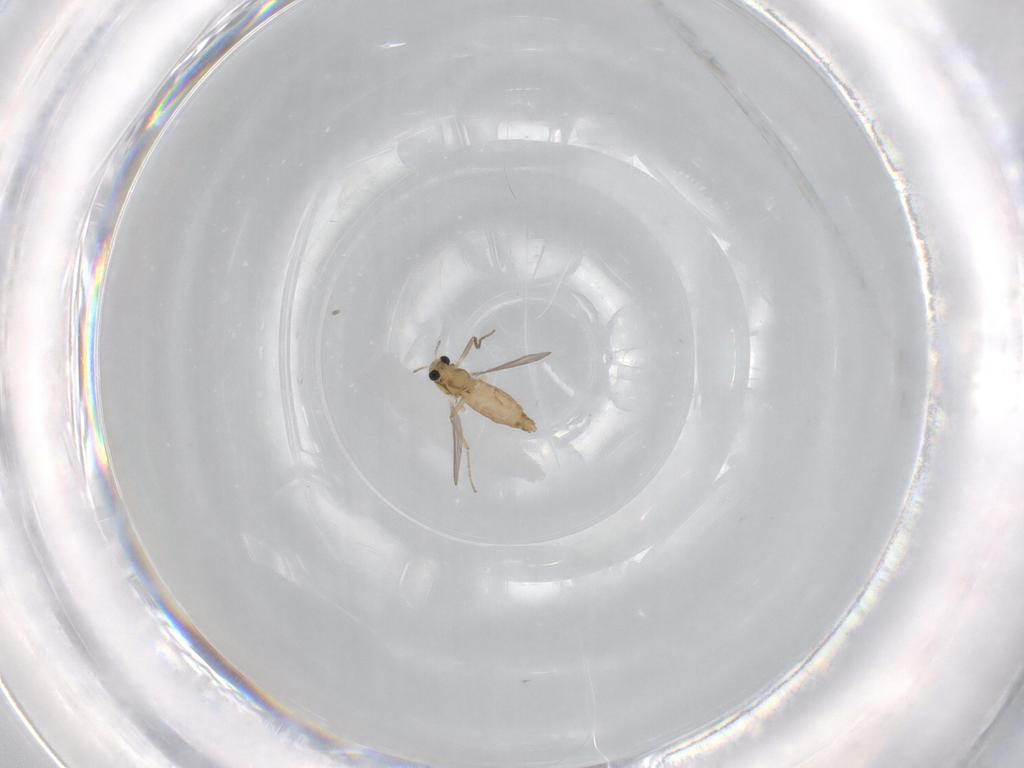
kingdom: Animalia
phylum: Arthropoda
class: Insecta
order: Diptera
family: Chironomidae
